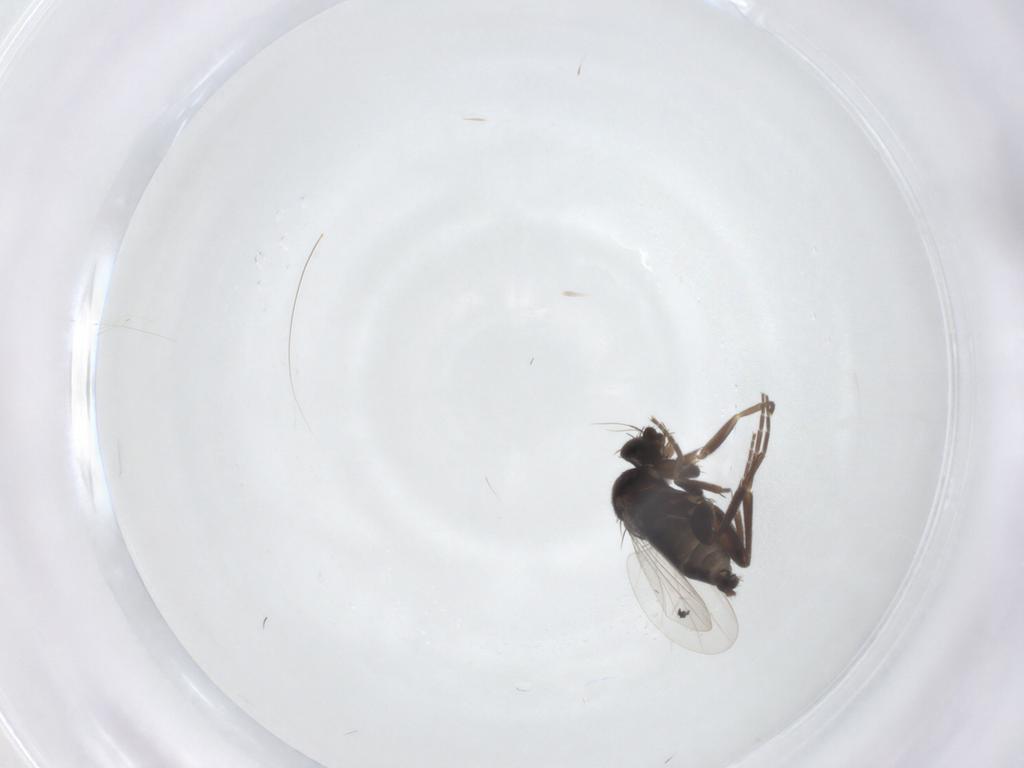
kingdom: Animalia
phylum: Arthropoda
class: Insecta
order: Diptera
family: Phoridae
